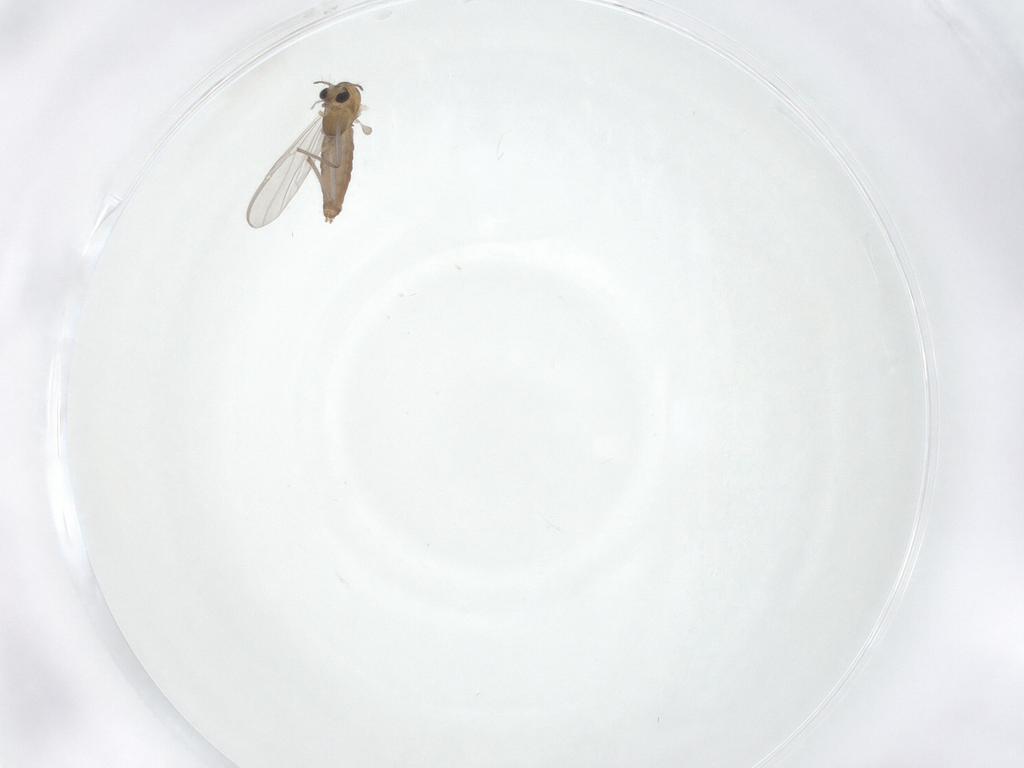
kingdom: Animalia
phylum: Arthropoda
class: Insecta
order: Diptera
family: Chironomidae
